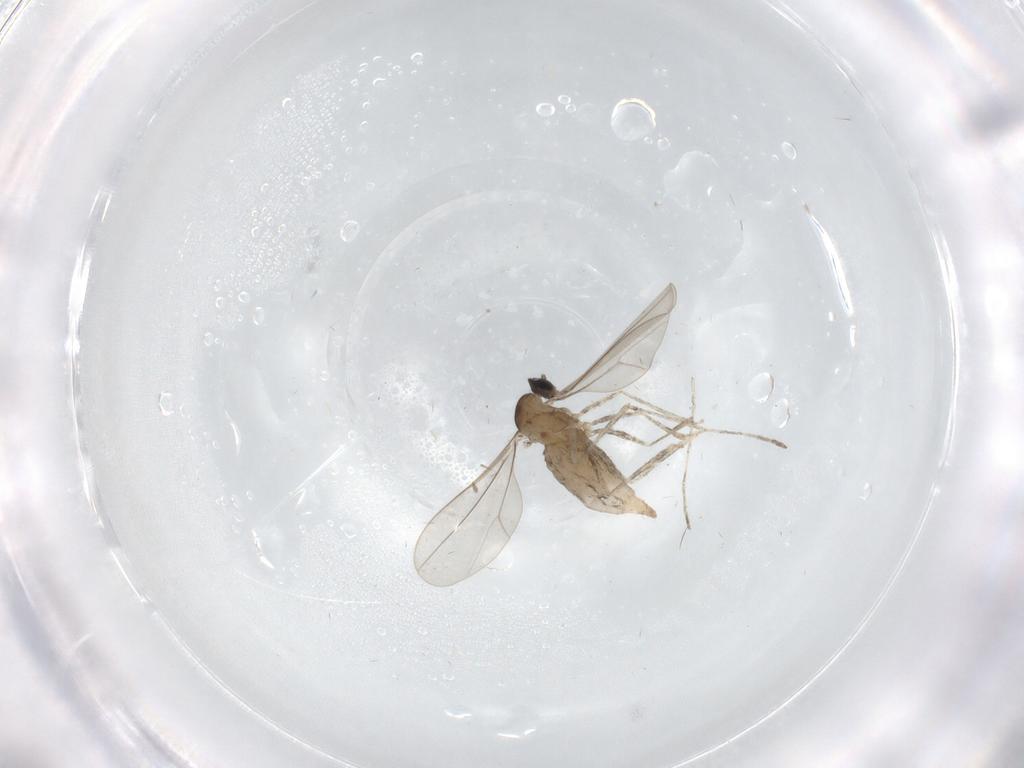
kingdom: Animalia
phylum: Arthropoda
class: Insecta
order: Diptera
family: Cecidomyiidae
